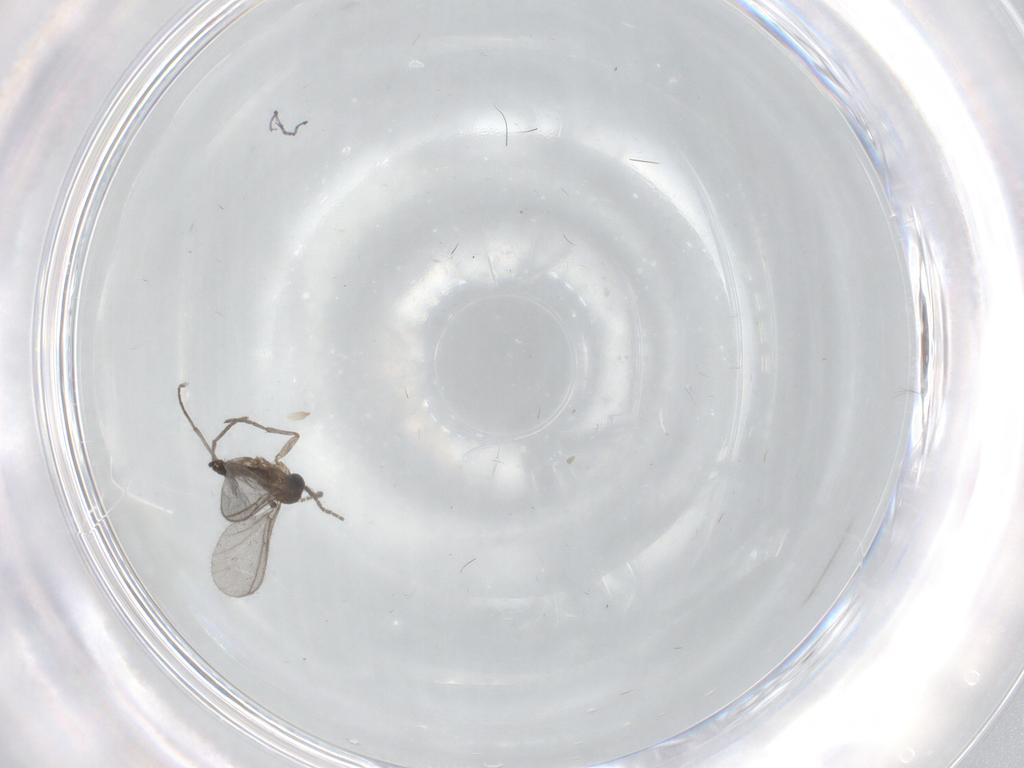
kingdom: Animalia
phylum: Arthropoda
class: Insecta
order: Diptera
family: Sciaridae
